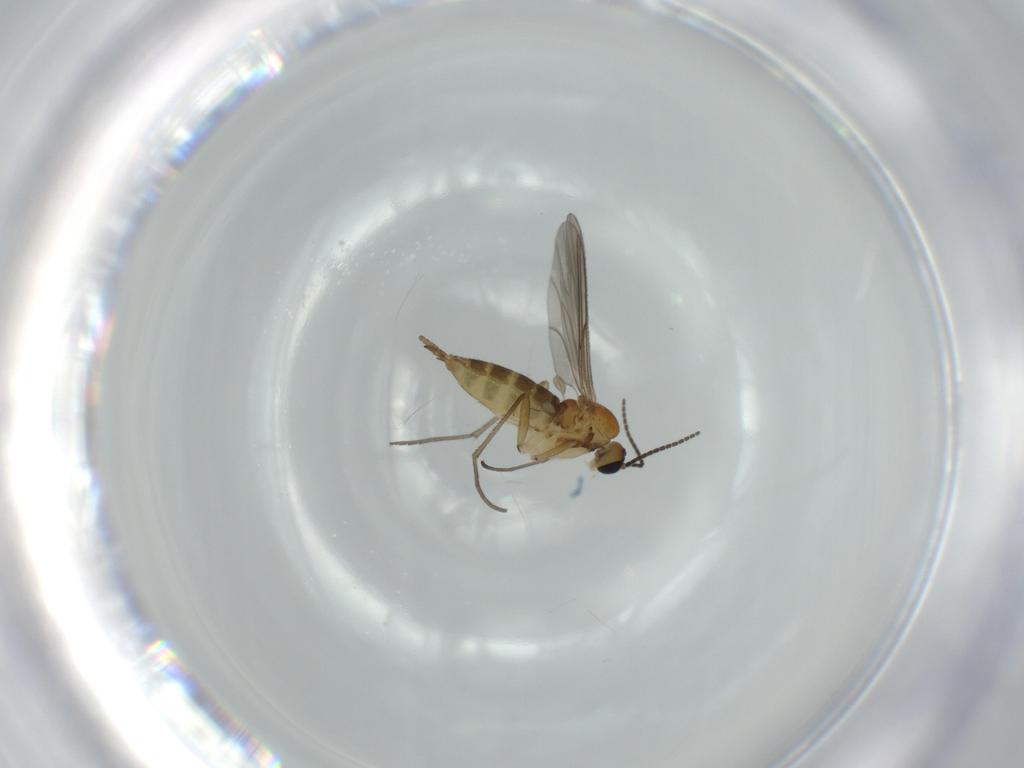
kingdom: Animalia
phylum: Arthropoda
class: Insecta
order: Diptera
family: Sciaridae
